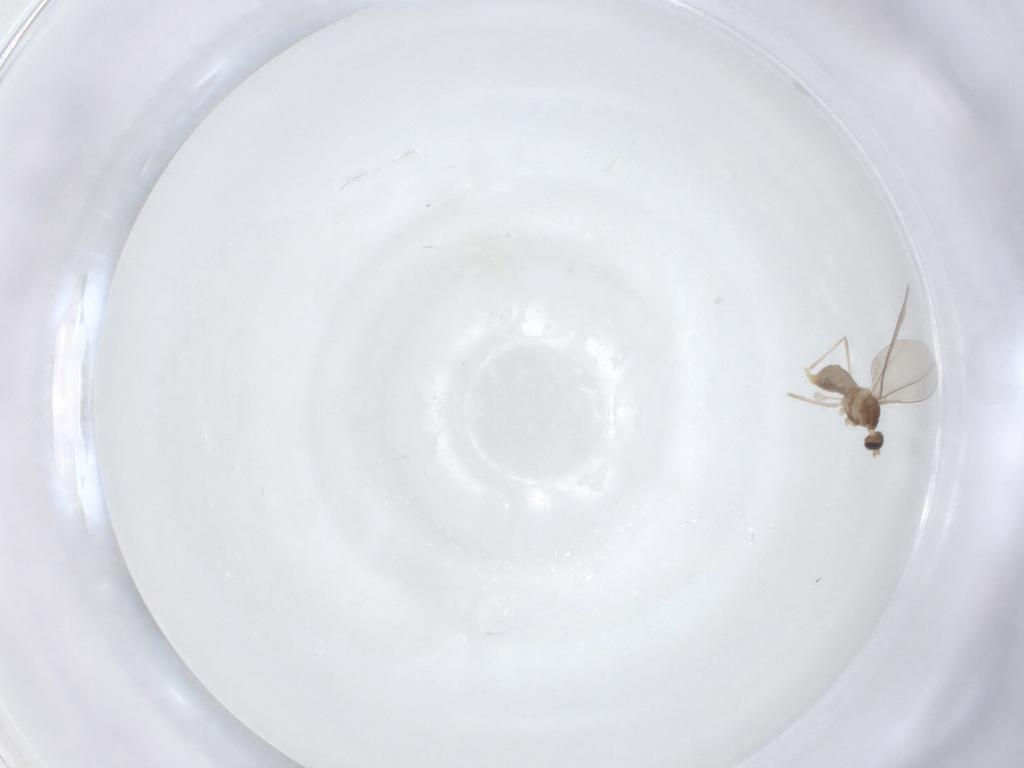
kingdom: Animalia
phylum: Arthropoda
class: Insecta
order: Diptera
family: Cecidomyiidae
